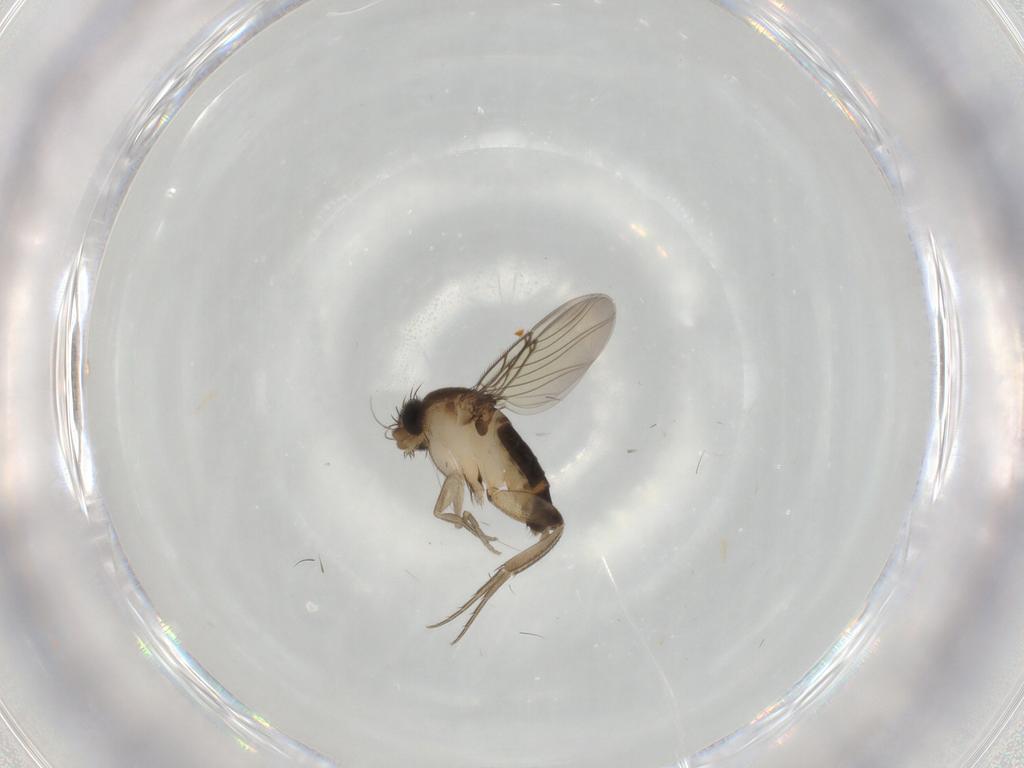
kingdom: Animalia
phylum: Arthropoda
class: Insecta
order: Diptera
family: Phoridae
